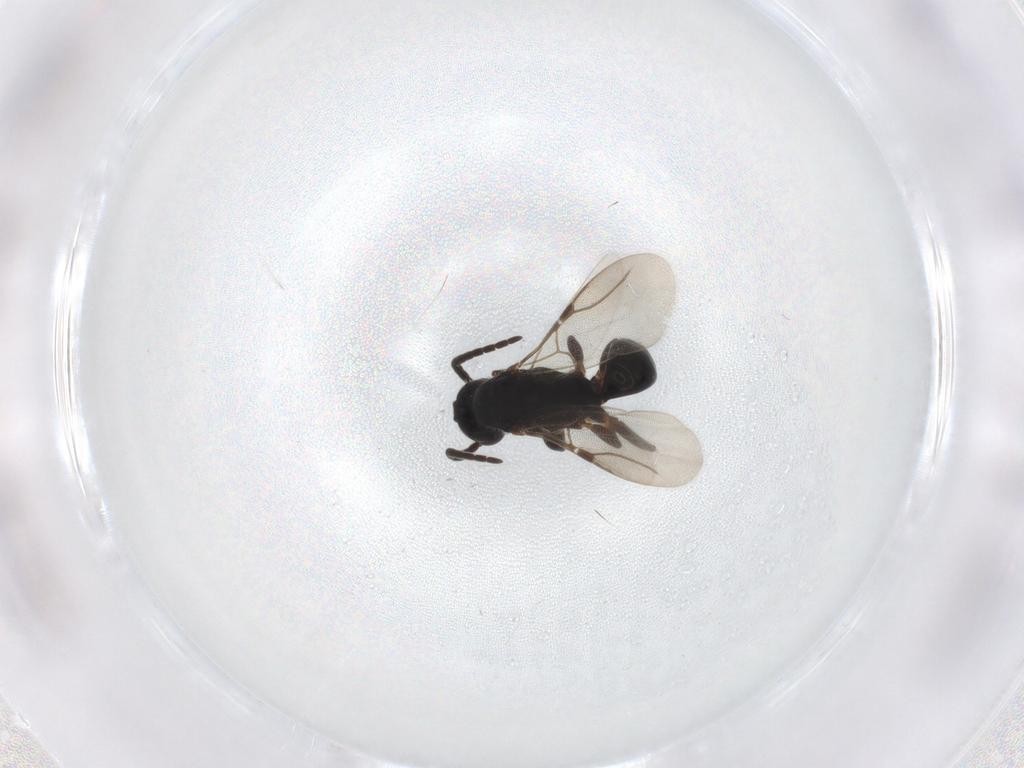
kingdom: Animalia
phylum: Arthropoda
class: Insecta
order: Hymenoptera
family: Bethylidae
